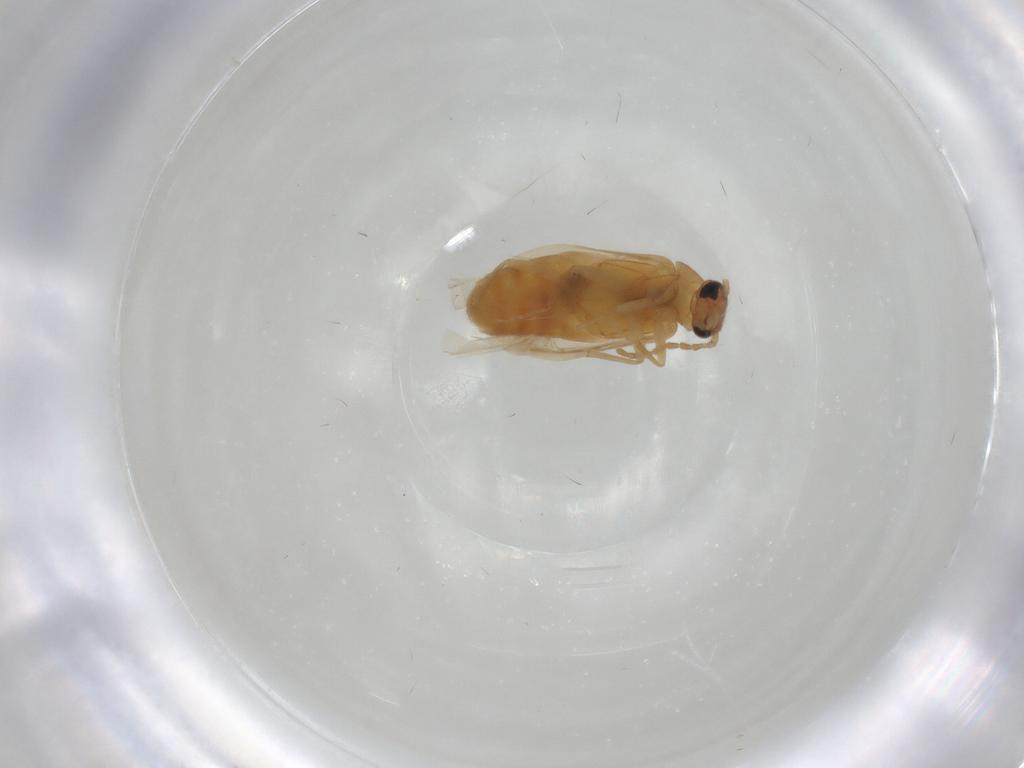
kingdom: Animalia
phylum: Arthropoda
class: Insecta
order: Coleoptera
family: Scraptiidae
